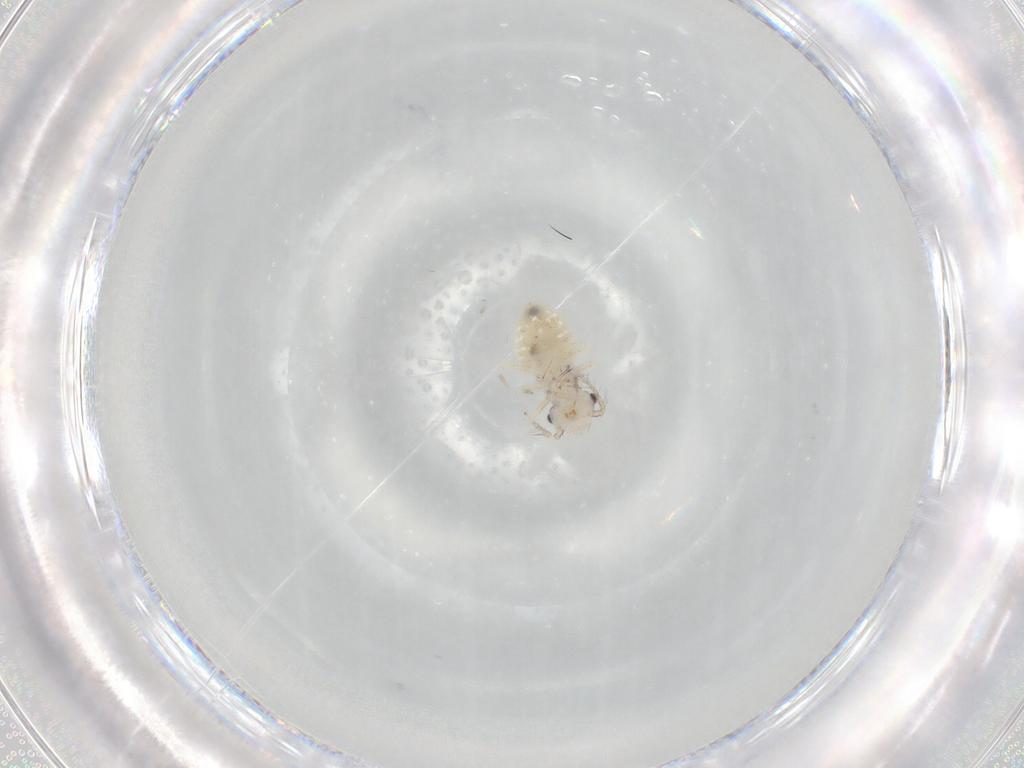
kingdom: Animalia
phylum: Arthropoda
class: Insecta
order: Psocodea
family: Pseudocaeciliidae
